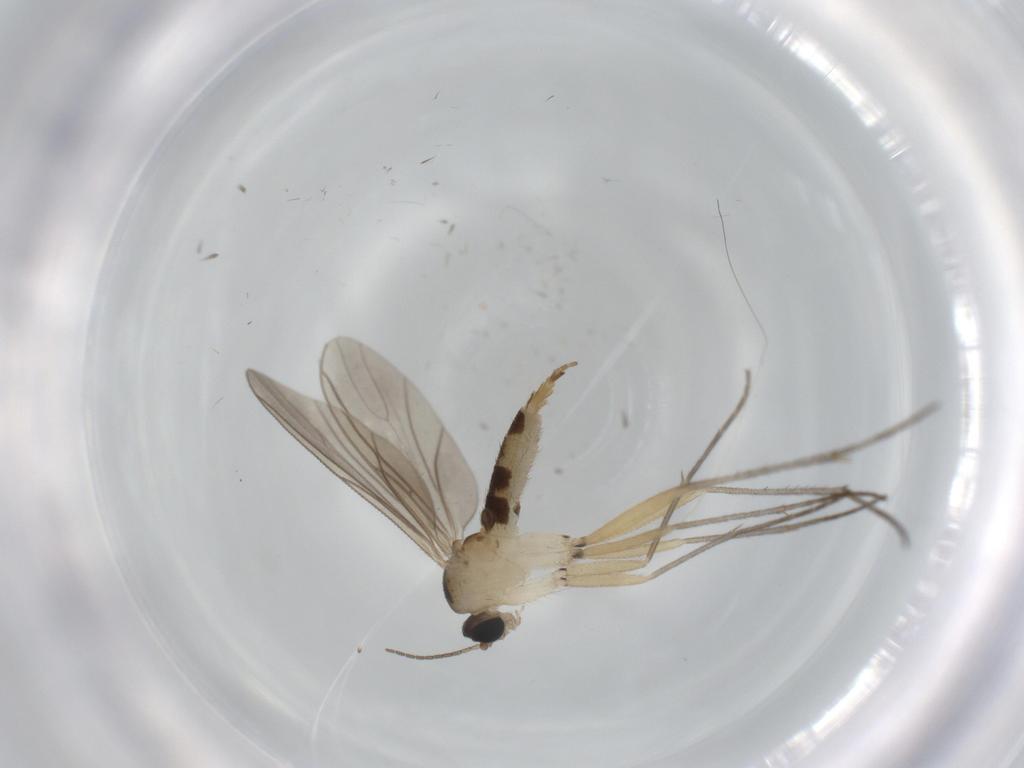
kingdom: Animalia
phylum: Arthropoda
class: Insecta
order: Diptera
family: Sciaridae
